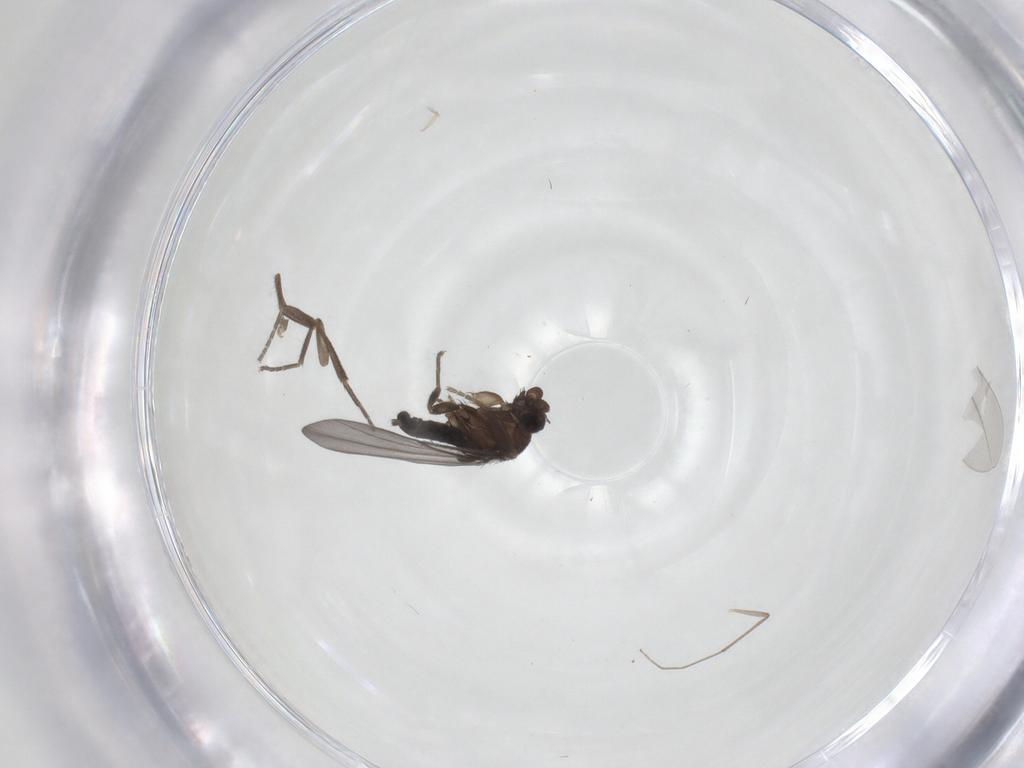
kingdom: Animalia
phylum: Arthropoda
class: Insecta
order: Diptera
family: Phoridae
